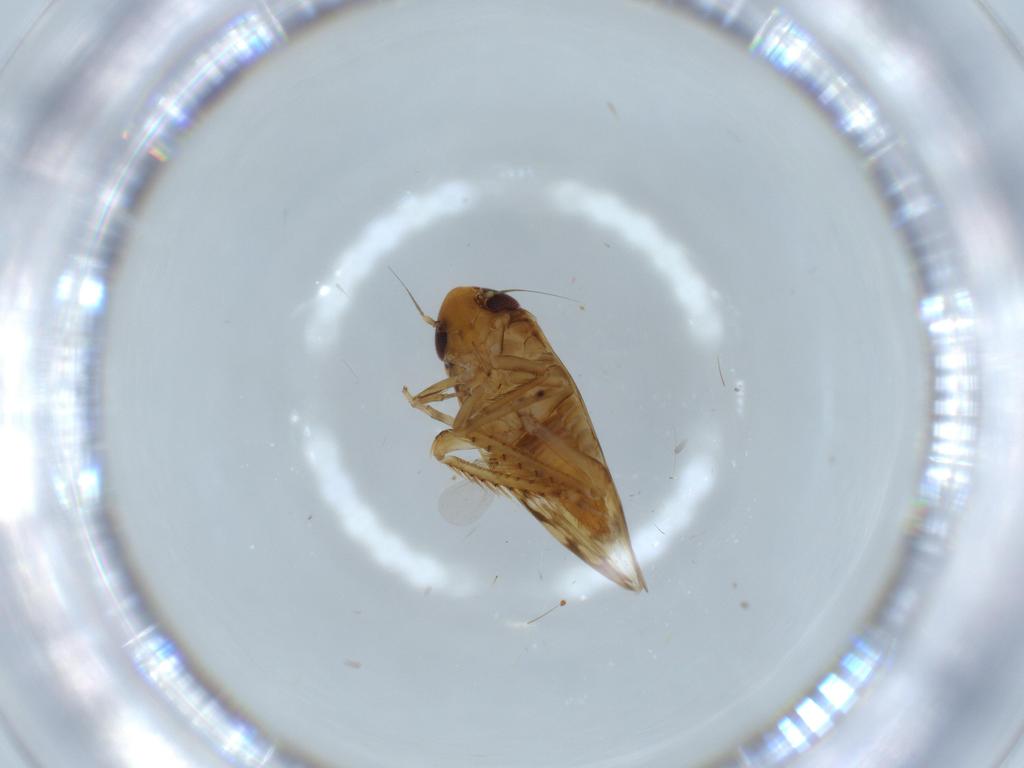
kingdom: Animalia
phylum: Arthropoda
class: Insecta
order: Hemiptera
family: Cicadellidae
